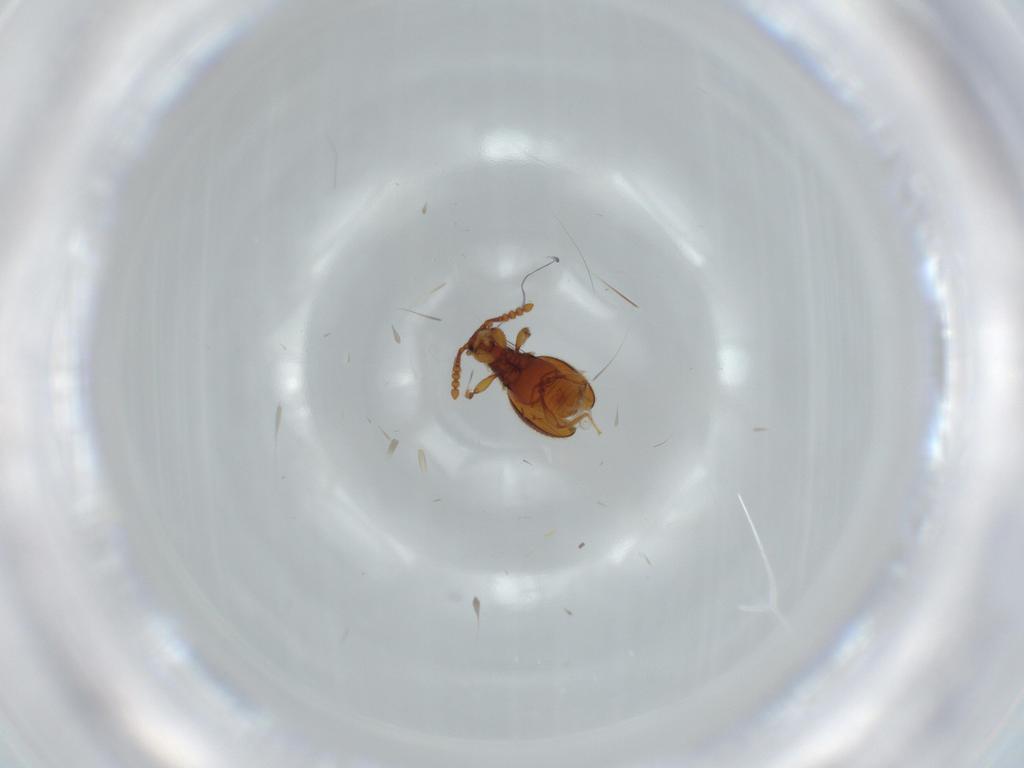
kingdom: Animalia
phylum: Arthropoda
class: Insecta
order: Coleoptera
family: Staphylinidae
